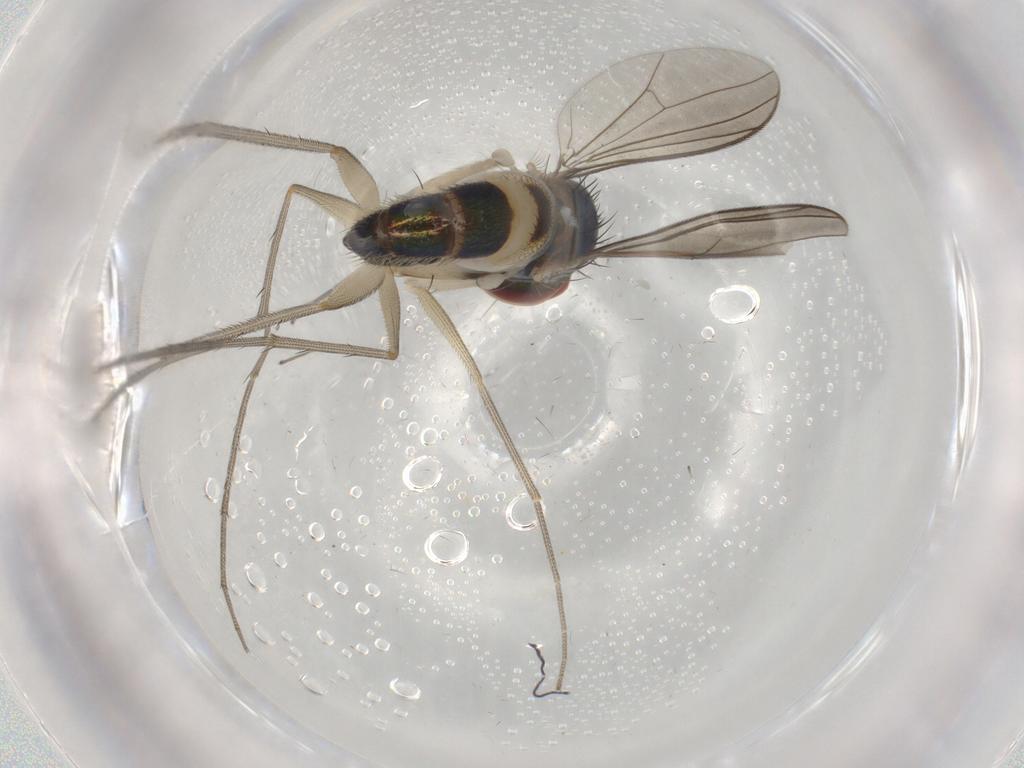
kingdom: Animalia
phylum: Arthropoda
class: Insecta
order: Diptera
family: Dolichopodidae
